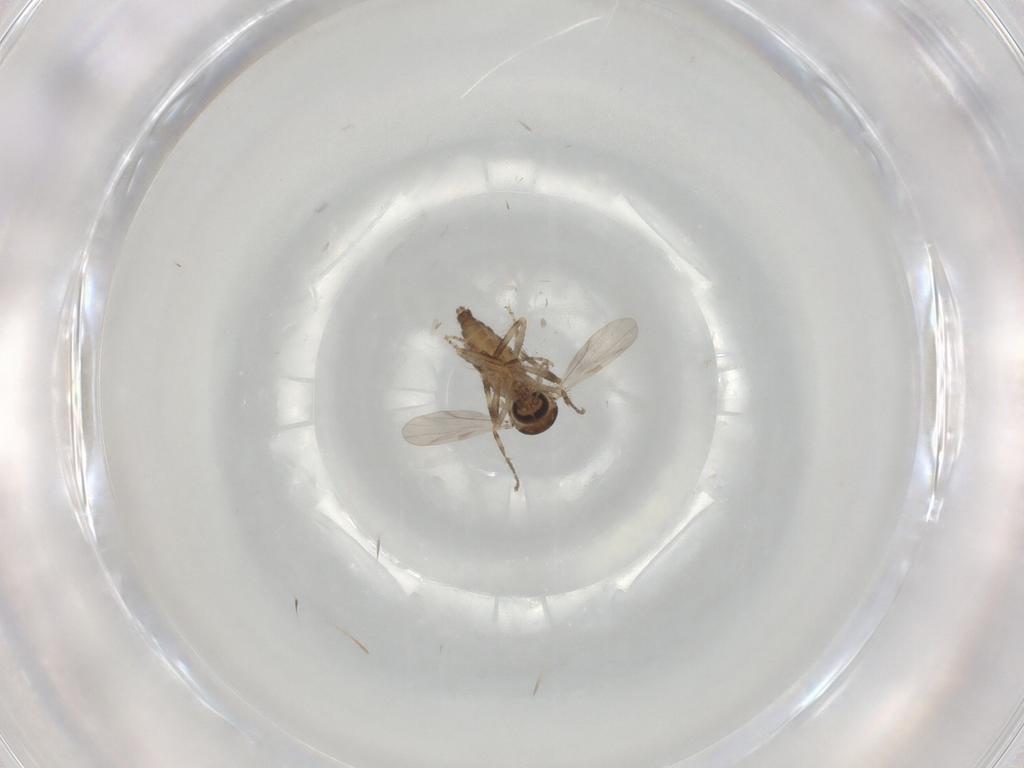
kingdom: Animalia
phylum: Arthropoda
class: Insecta
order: Diptera
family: Ceratopogonidae
